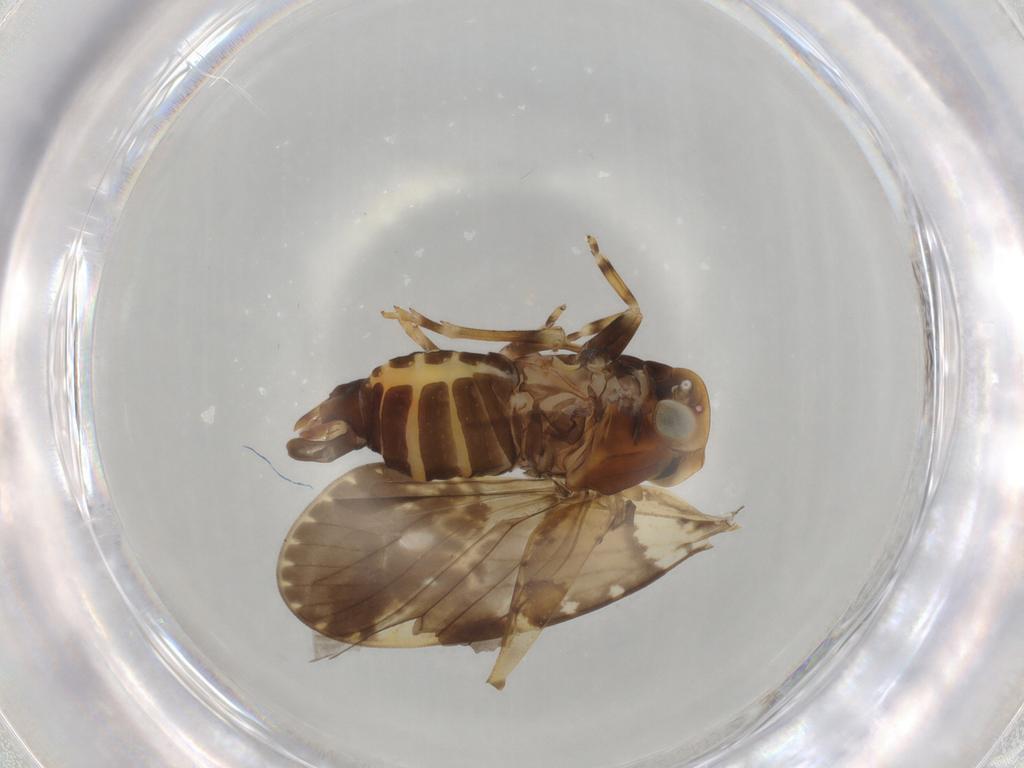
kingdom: Animalia
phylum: Arthropoda
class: Insecta
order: Hemiptera
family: Cixiidae
